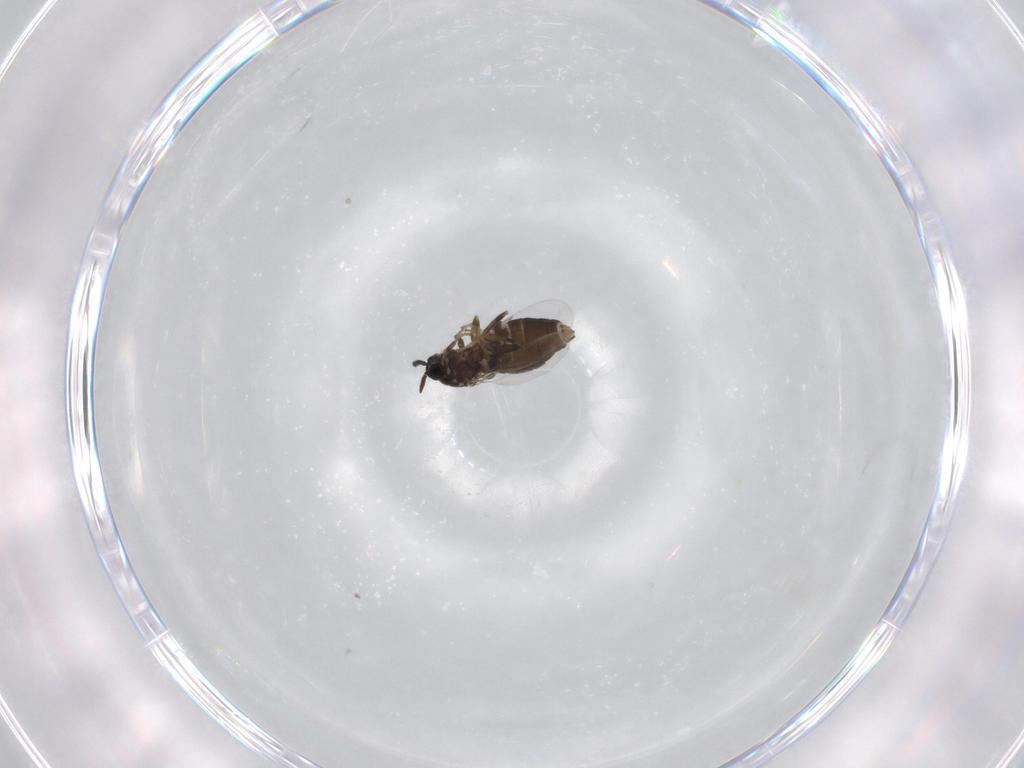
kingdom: Animalia
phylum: Arthropoda
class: Insecta
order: Diptera
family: Scatopsidae
